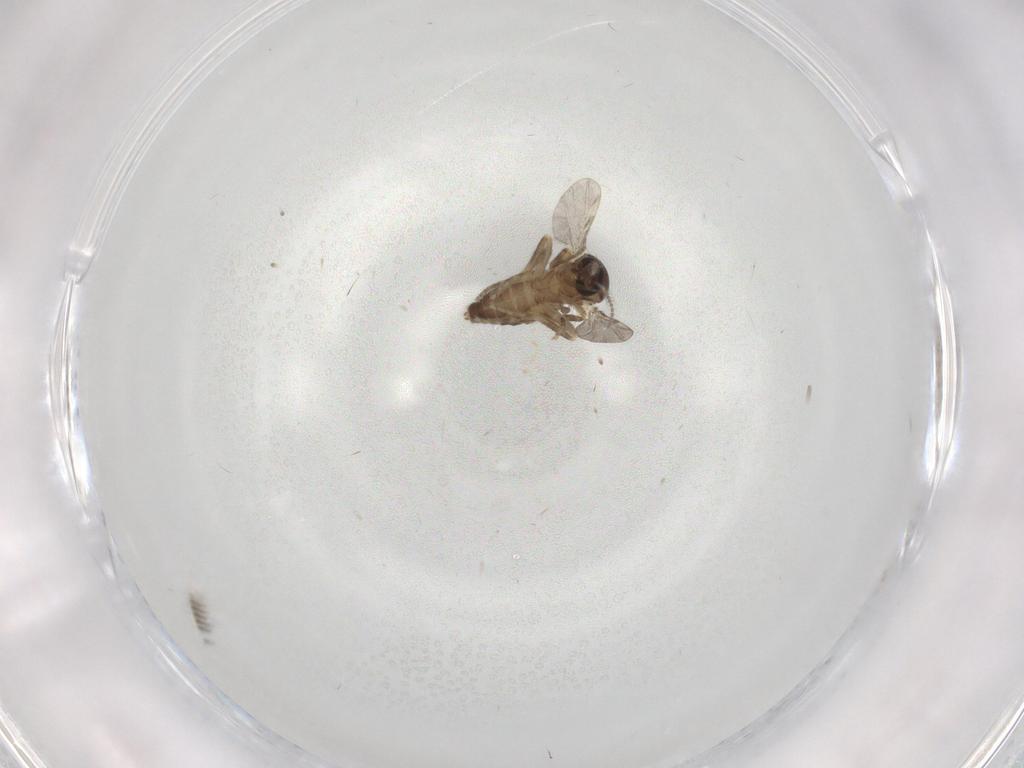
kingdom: Animalia
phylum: Arthropoda
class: Insecta
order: Diptera
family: Ceratopogonidae
